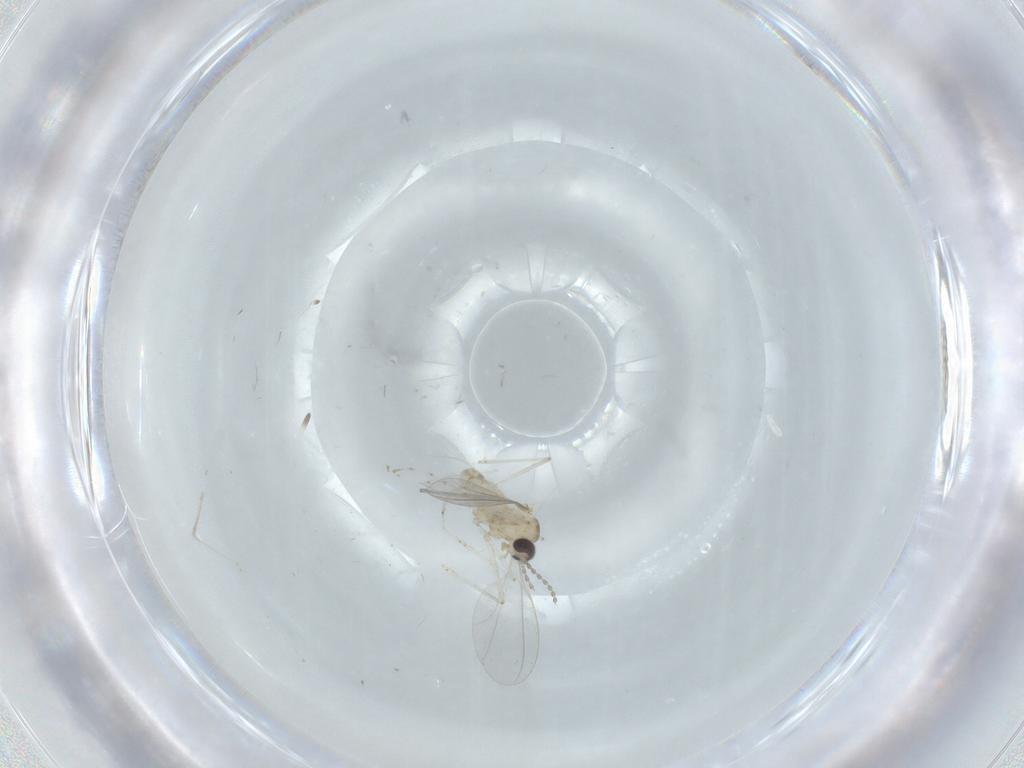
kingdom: Animalia
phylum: Arthropoda
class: Insecta
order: Diptera
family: Cecidomyiidae
